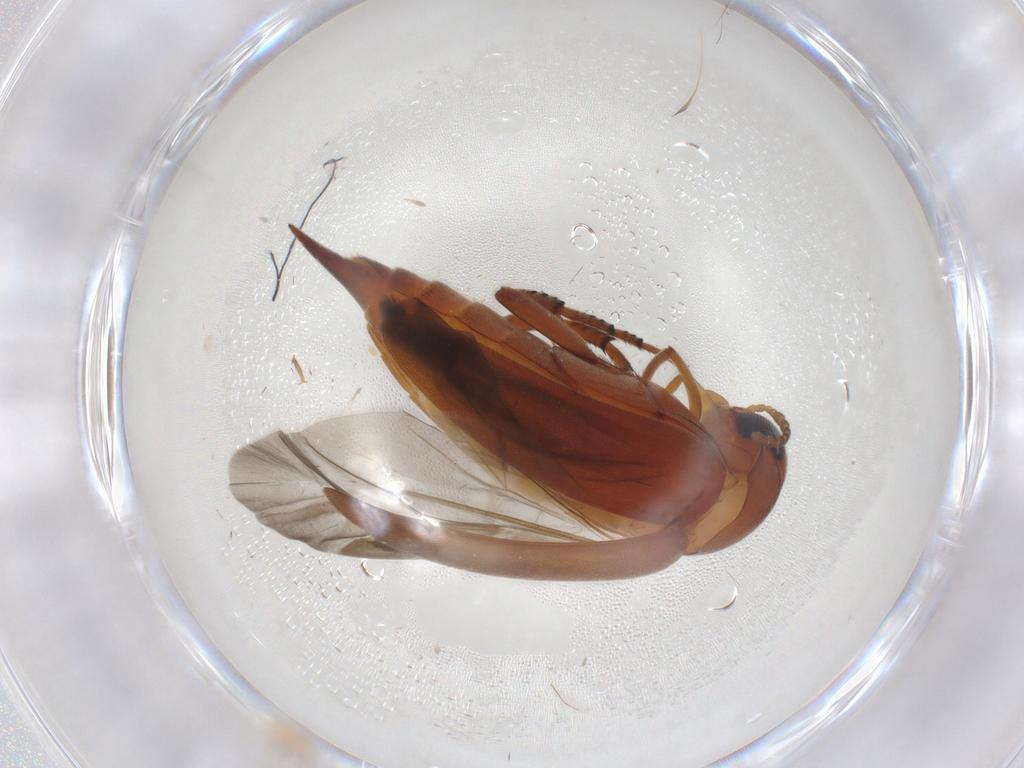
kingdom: Animalia
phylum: Arthropoda
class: Insecta
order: Coleoptera
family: Mordellidae
